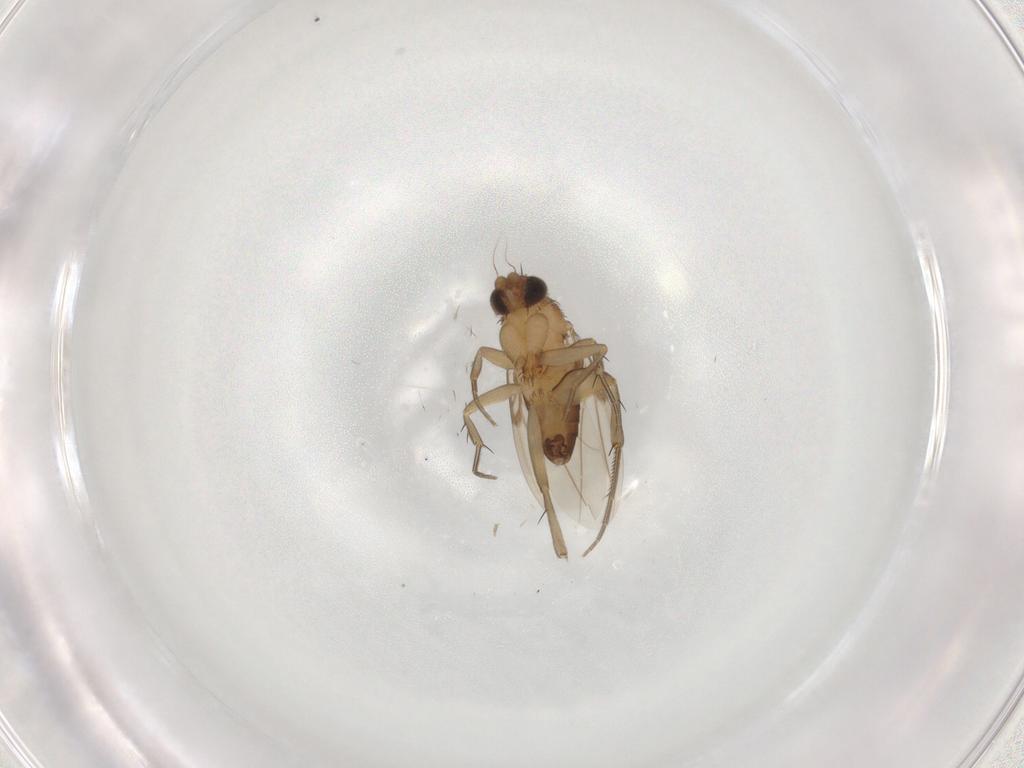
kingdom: Animalia
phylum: Arthropoda
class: Insecta
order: Diptera
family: Phoridae
